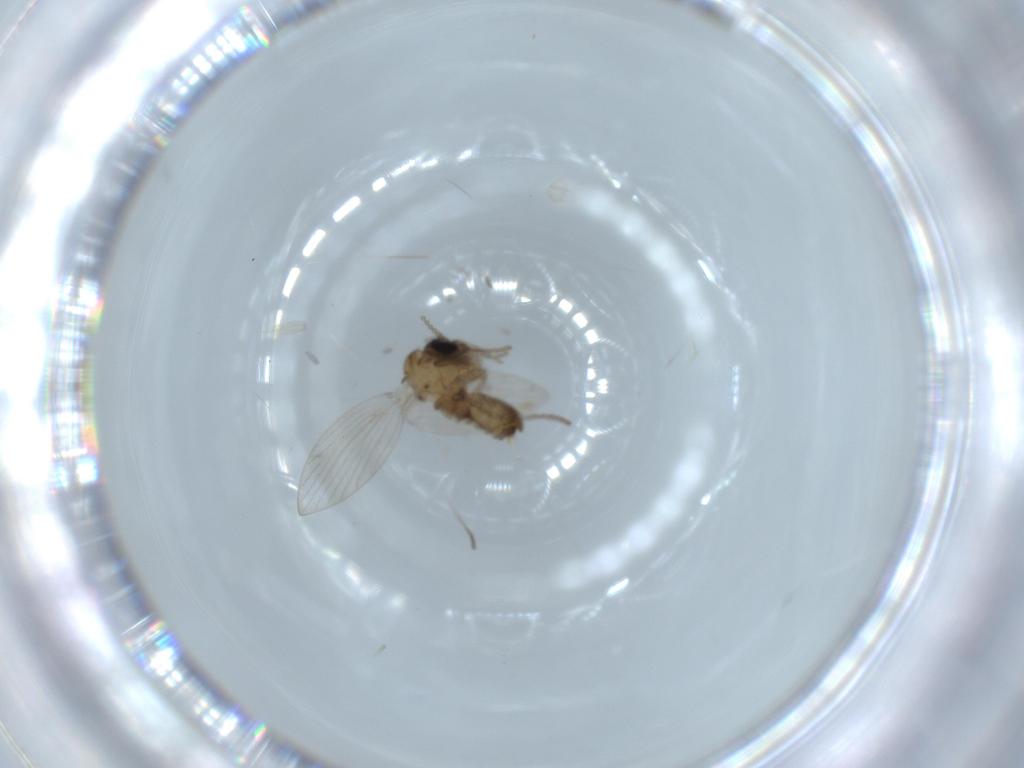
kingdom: Animalia
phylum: Arthropoda
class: Insecta
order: Diptera
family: Psychodidae
